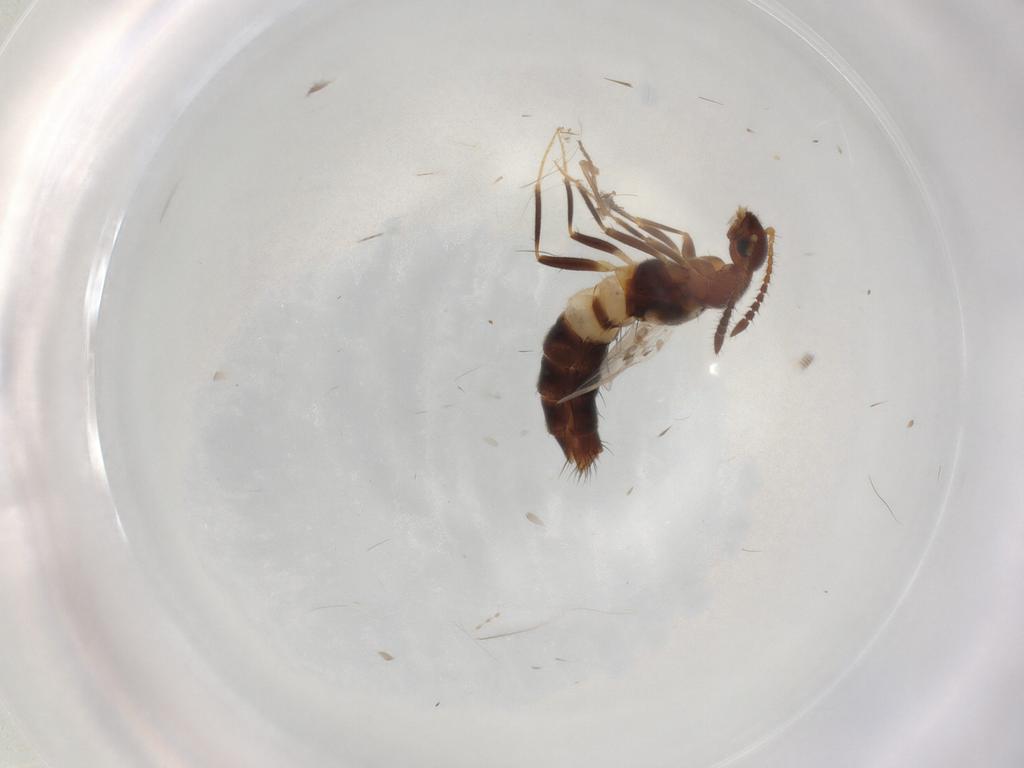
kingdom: Animalia
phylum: Arthropoda
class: Insecta
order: Coleoptera
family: Staphylinidae
